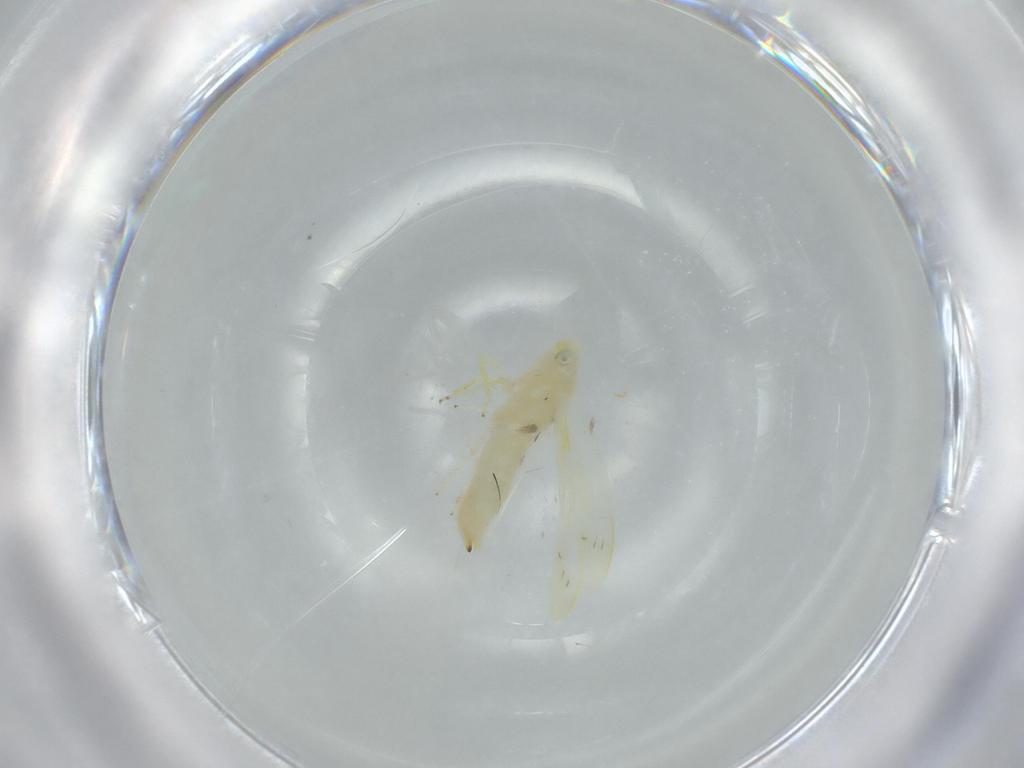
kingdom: Animalia
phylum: Arthropoda
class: Insecta
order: Hemiptera
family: Cicadellidae
